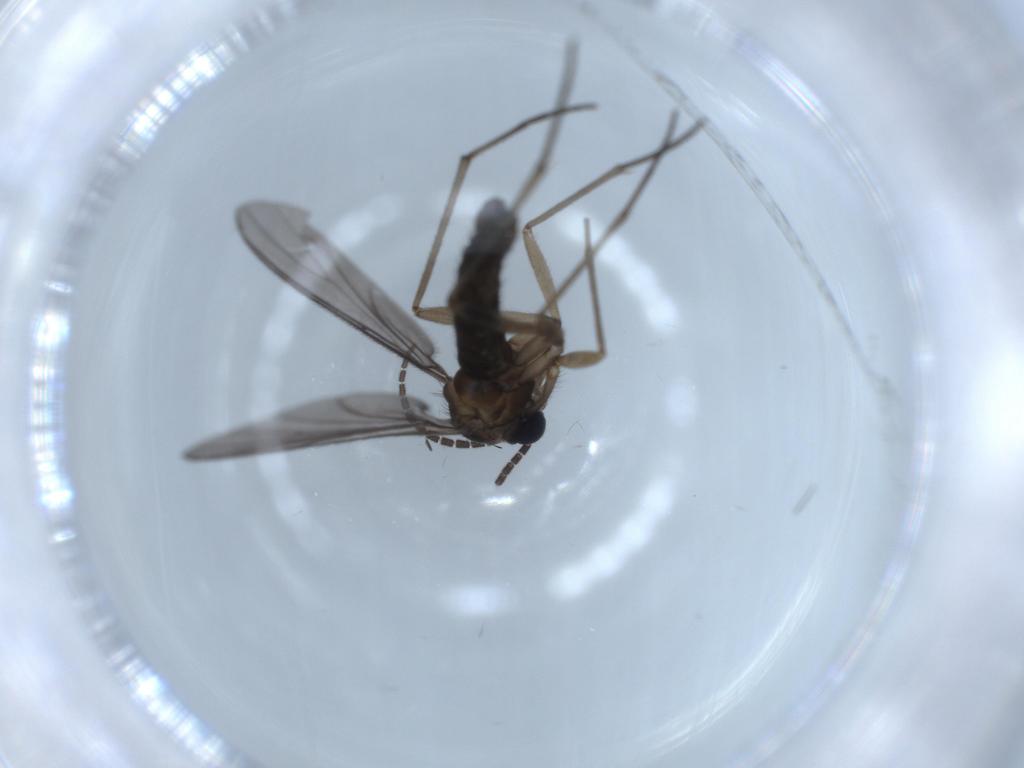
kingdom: Animalia
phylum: Arthropoda
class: Insecta
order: Diptera
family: Sciaridae
